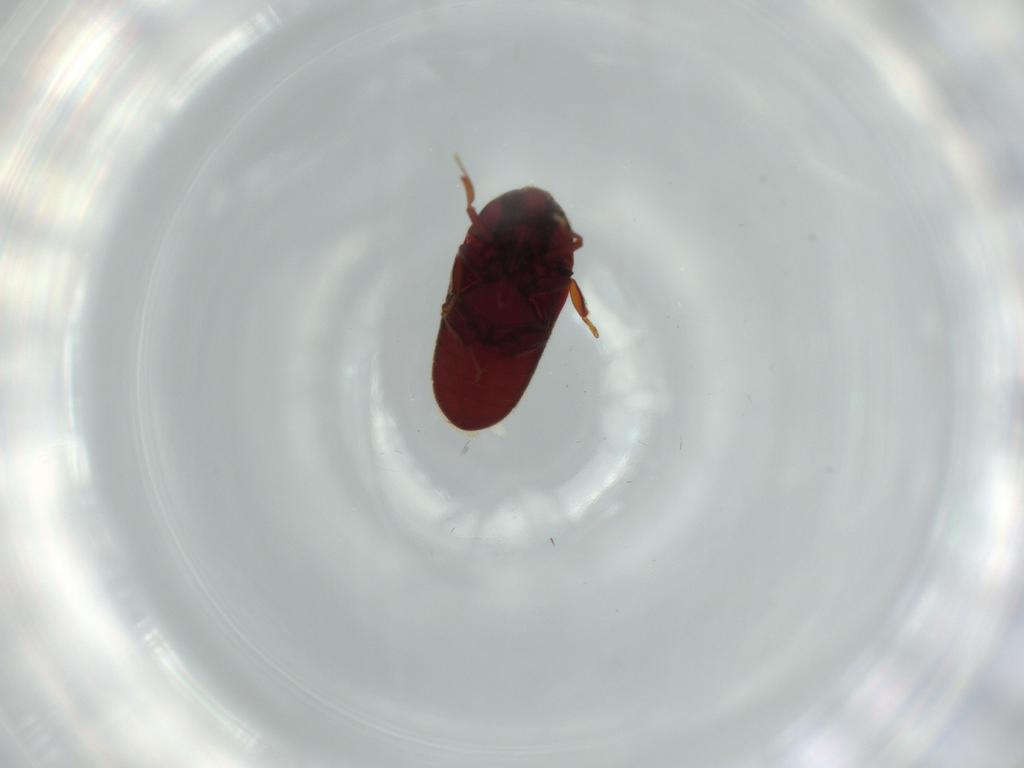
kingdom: Animalia
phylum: Arthropoda
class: Insecta
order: Coleoptera
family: Throscidae
